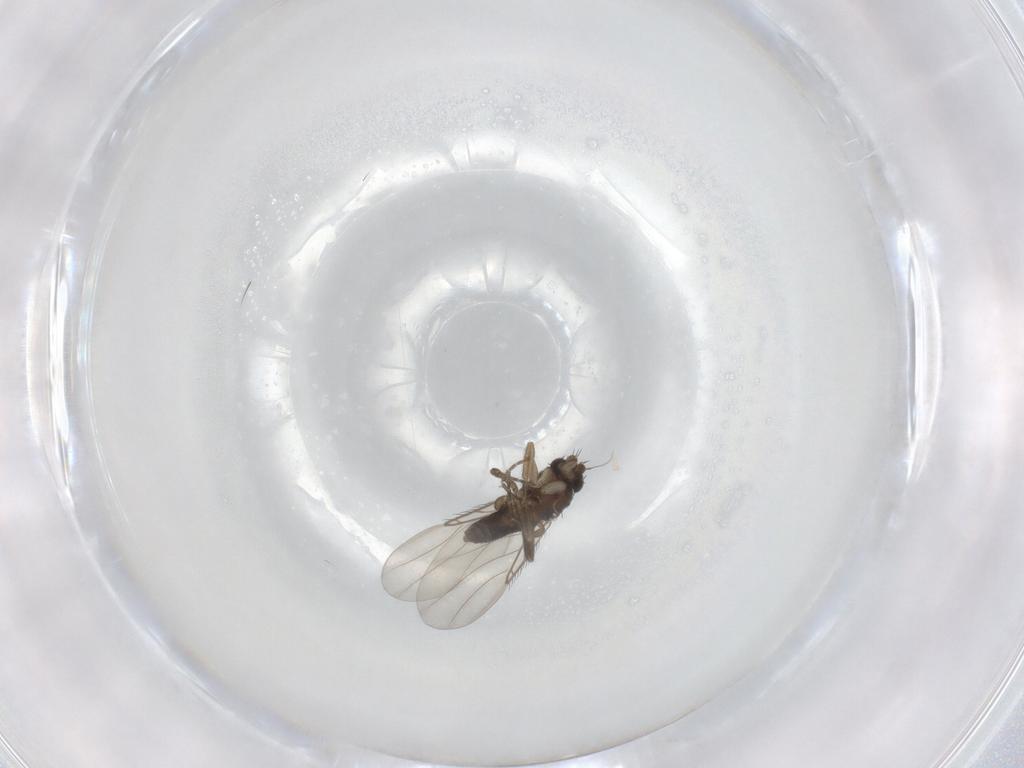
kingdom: Animalia
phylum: Arthropoda
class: Insecta
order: Diptera
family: Phoridae
